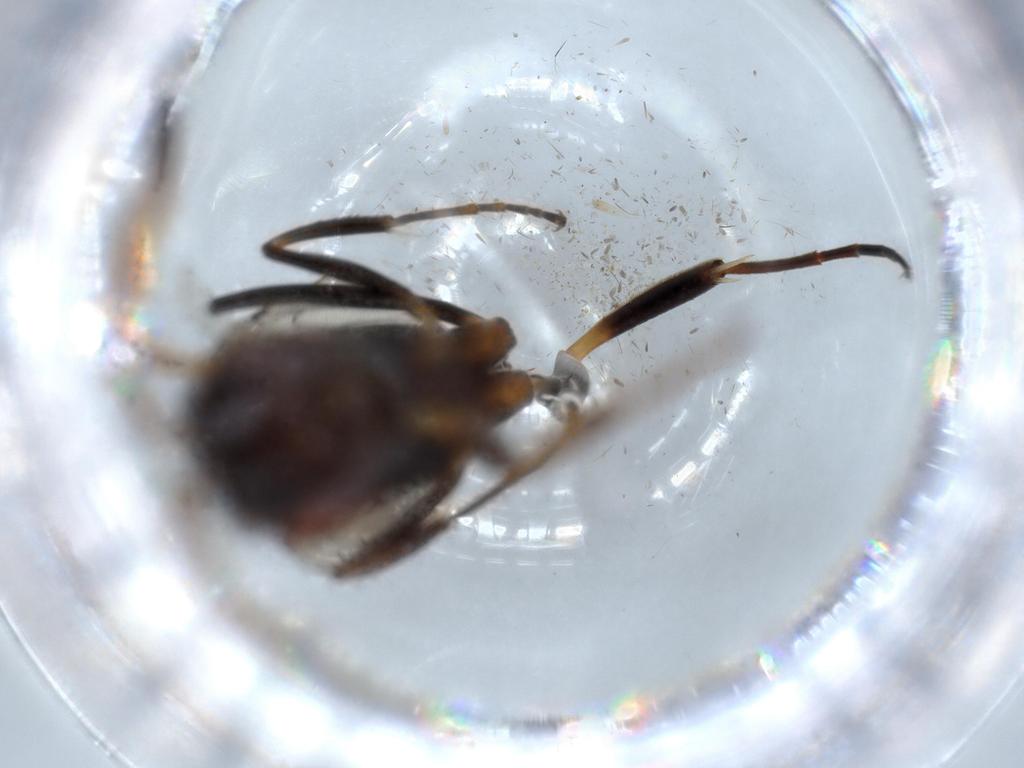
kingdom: Animalia
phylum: Arthropoda
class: Insecta
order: Hymenoptera
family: Evaniidae
